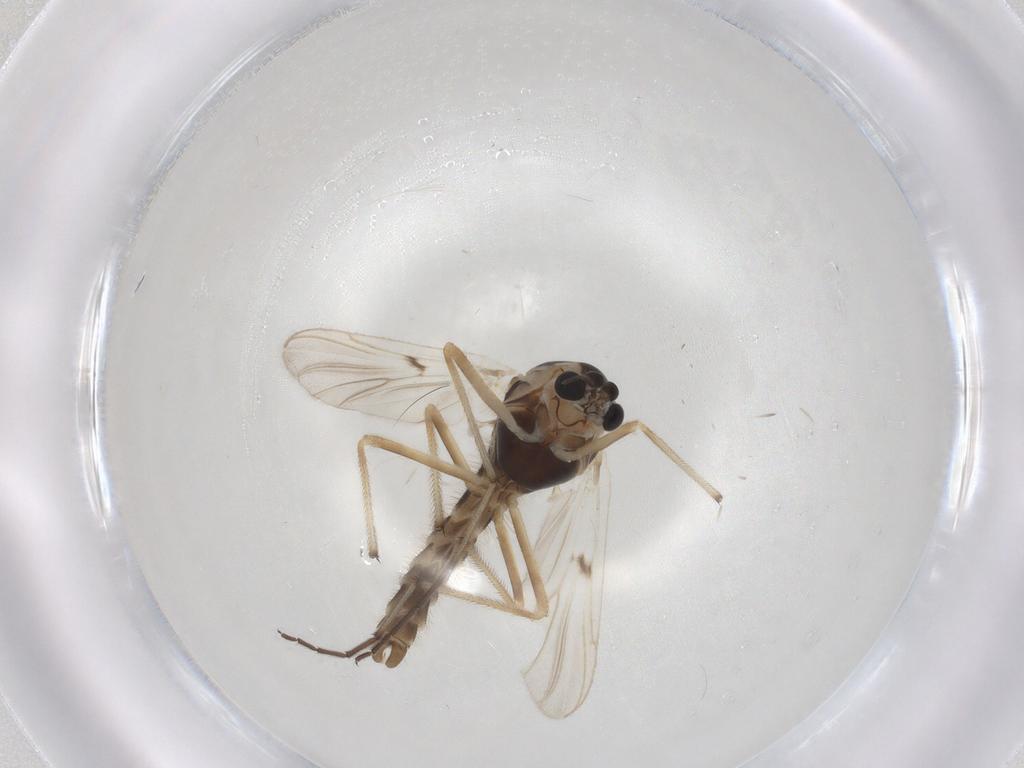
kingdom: Animalia
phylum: Arthropoda
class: Insecta
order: Diptera
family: Chironomidae
